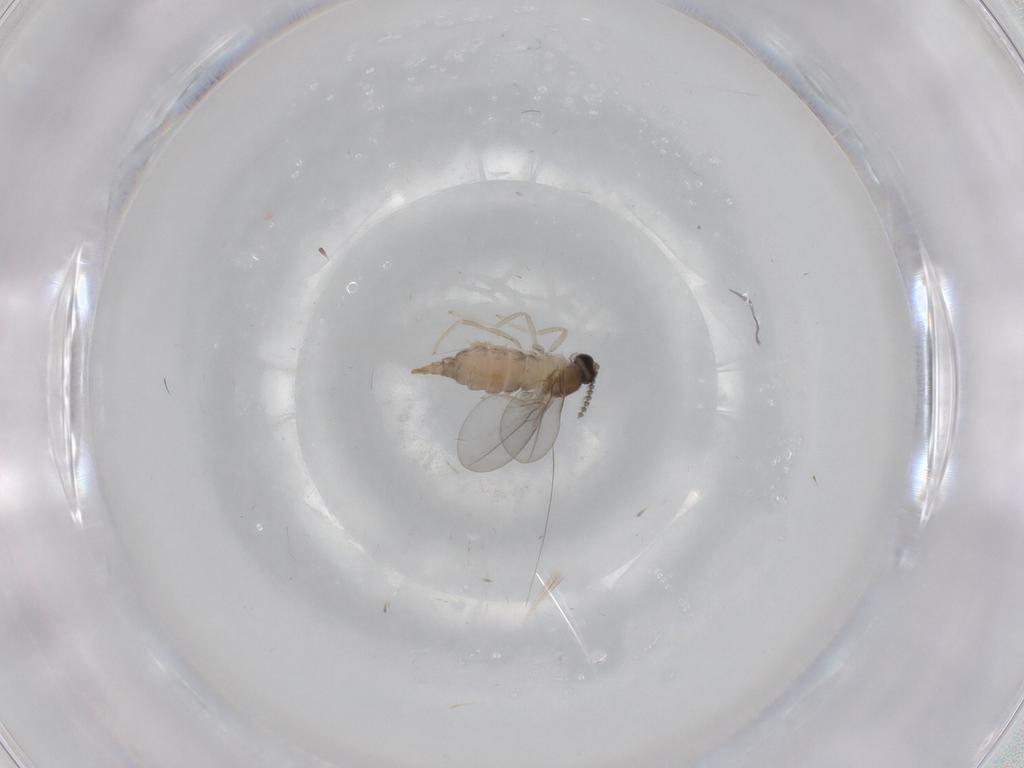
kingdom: Animalia
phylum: Arthropoda
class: Insecta
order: Diptera
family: Cecidomyiidae
